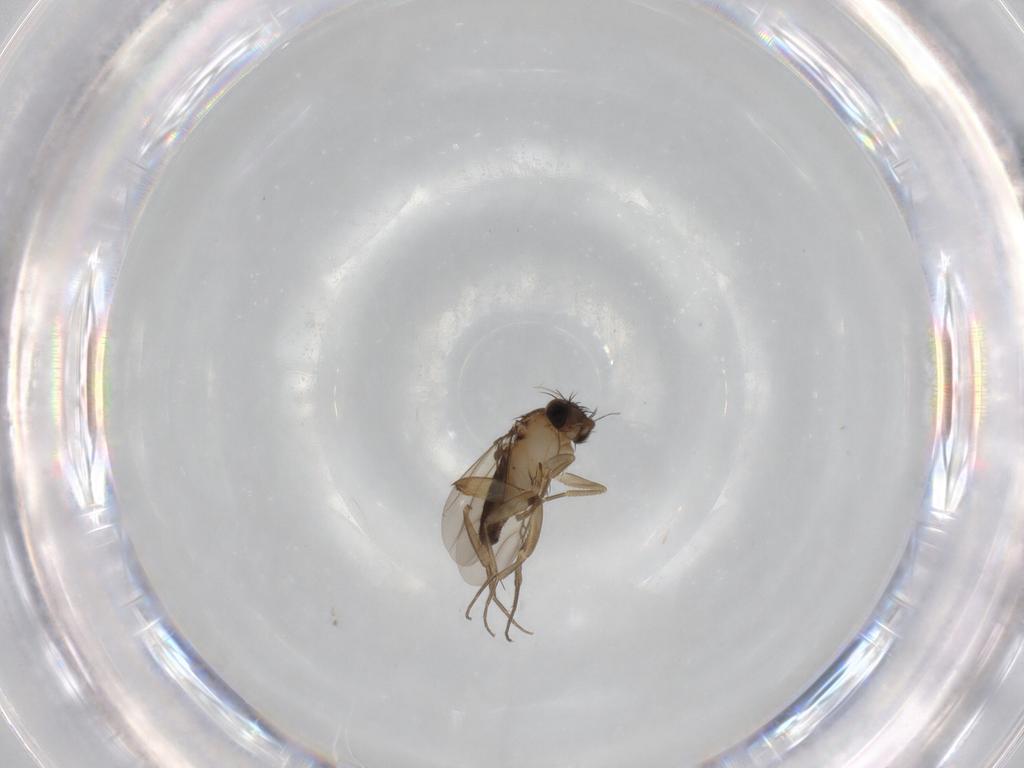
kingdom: Animalia
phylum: Arthropoda
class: Insecta
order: Diptera
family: Phoridae
